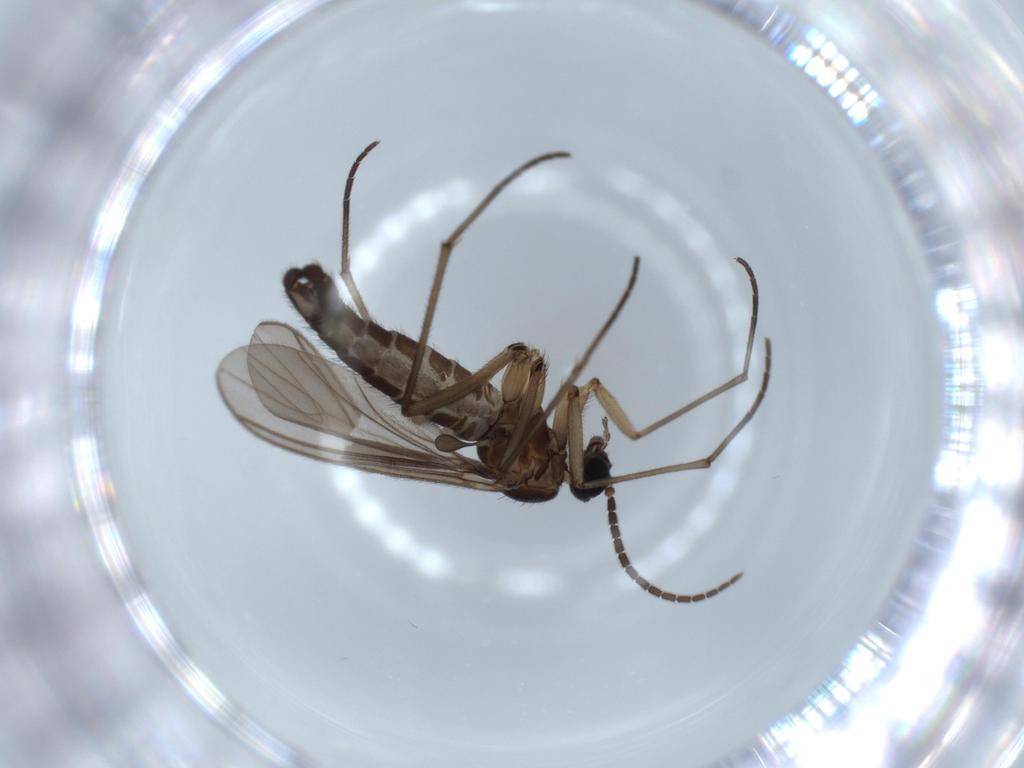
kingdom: Animalia
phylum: Arthropoda
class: Insecta
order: Diptera
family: Sciaridae
